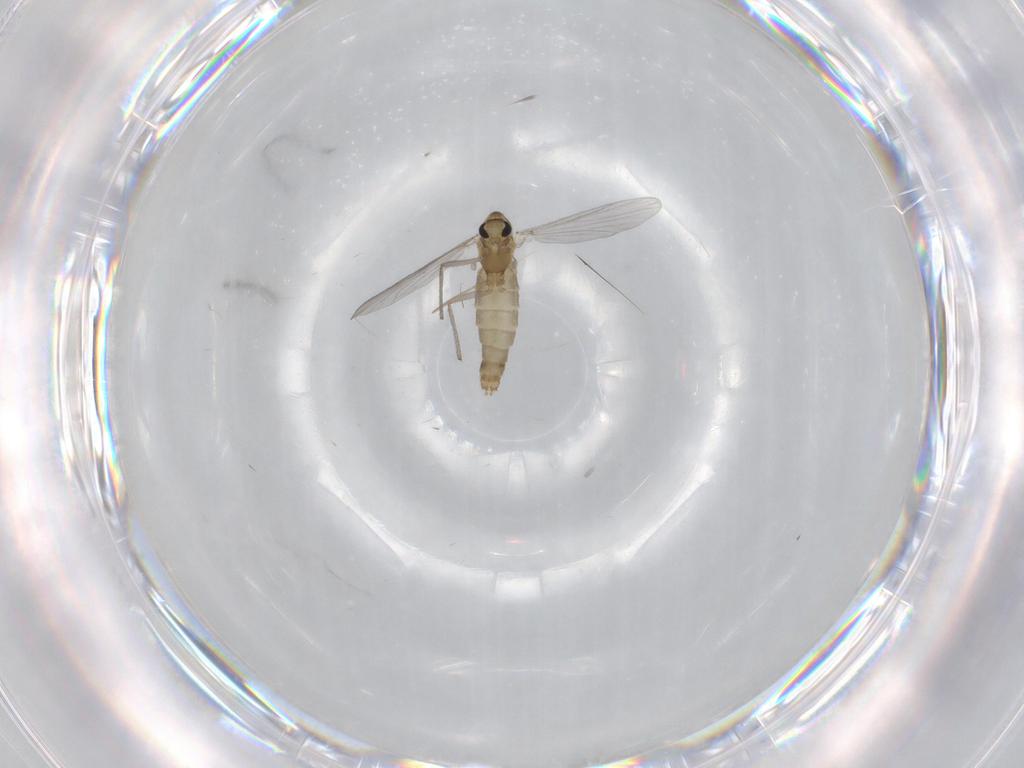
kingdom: Animalia
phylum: Arthropoda
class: Insecta
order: Diptera
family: Chironomidae
